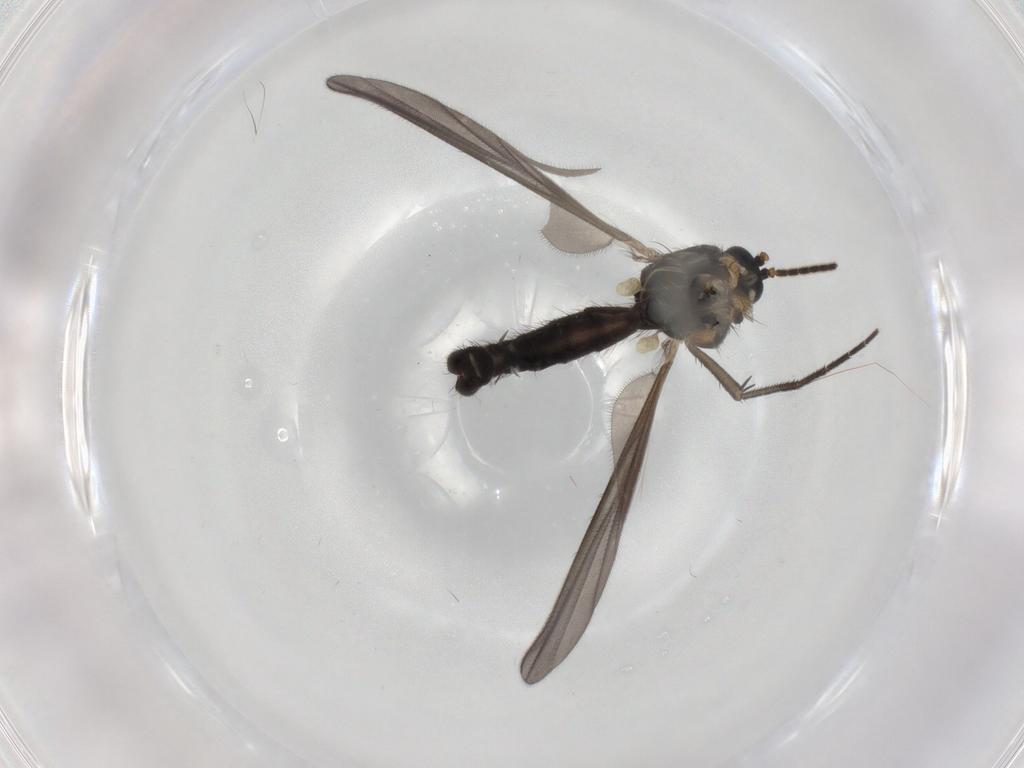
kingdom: Animalia
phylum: Arthropoda
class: Insecta
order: Diptera
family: Mycetophilidae
